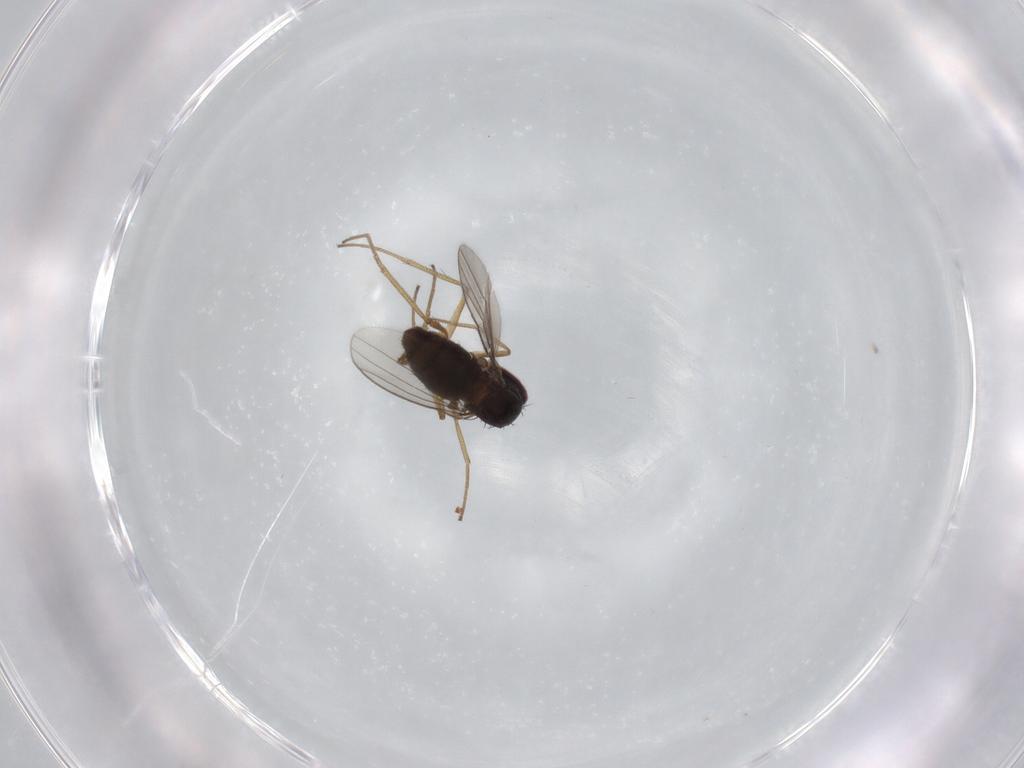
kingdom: Animalia
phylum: Arthropoda
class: Insecta
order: Diptera
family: Dolichopodidae
